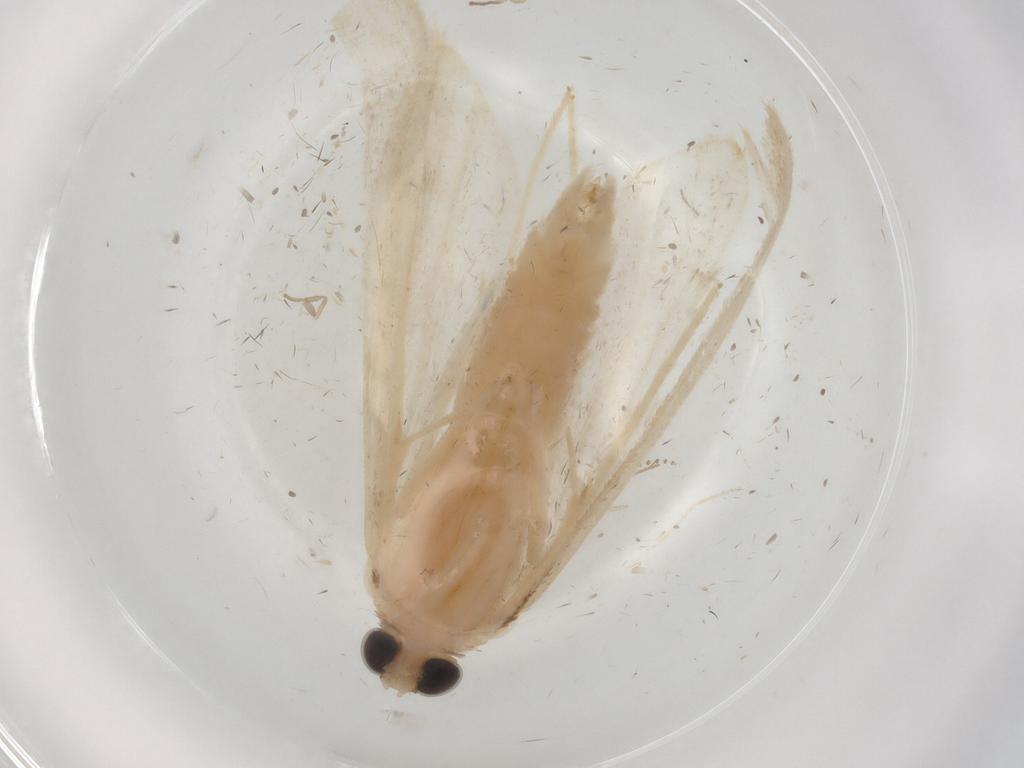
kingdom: Animalia
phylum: Arthropoda
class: Insecta
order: Lepidoptera
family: Crambidae
